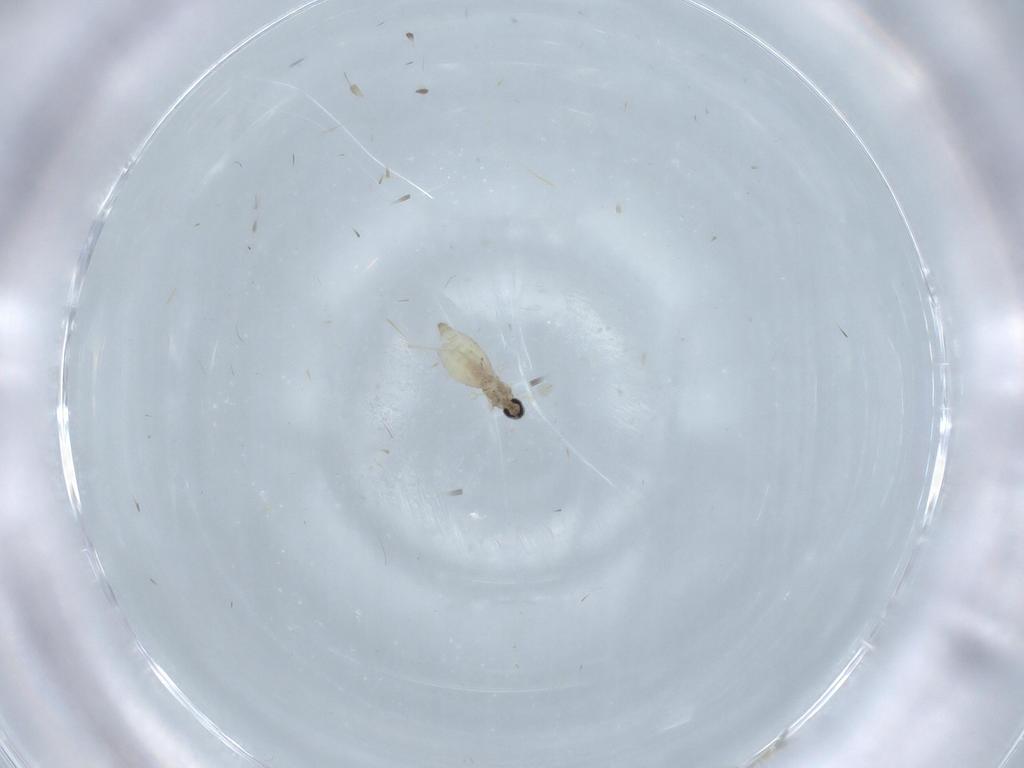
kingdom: Animalia
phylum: Arthropoda
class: Insecta
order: Diptera
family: Cecidomyiidae
